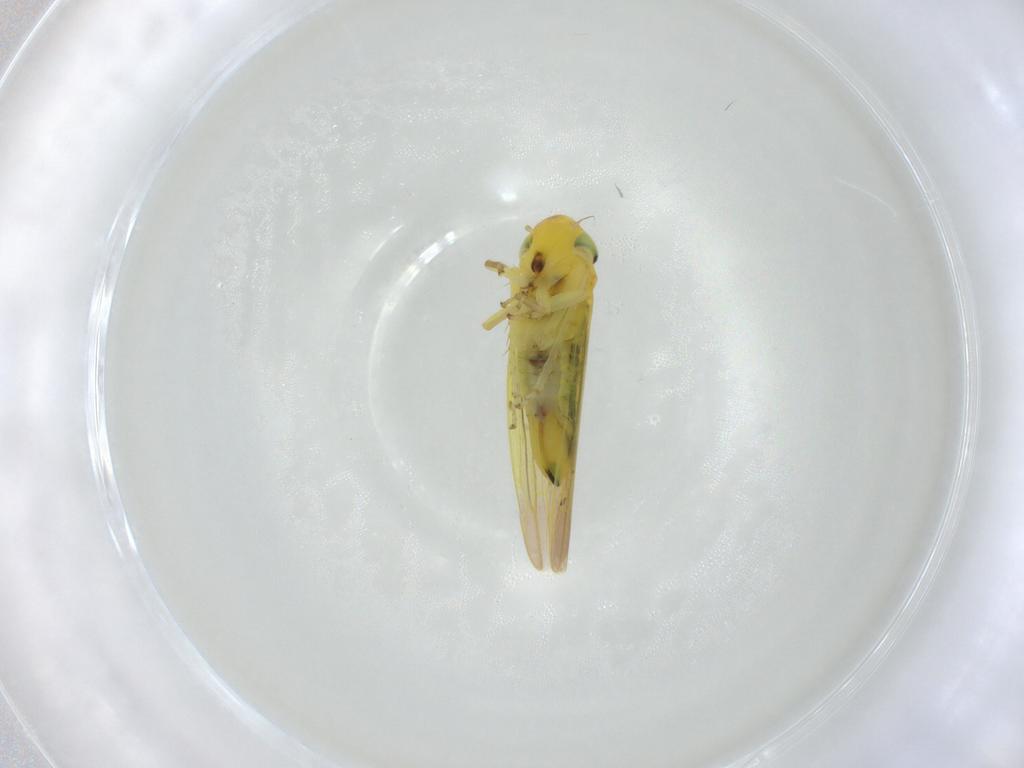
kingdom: Animalia
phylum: Arthropoda
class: Insecta
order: Hemiptera
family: Cicadellidae
